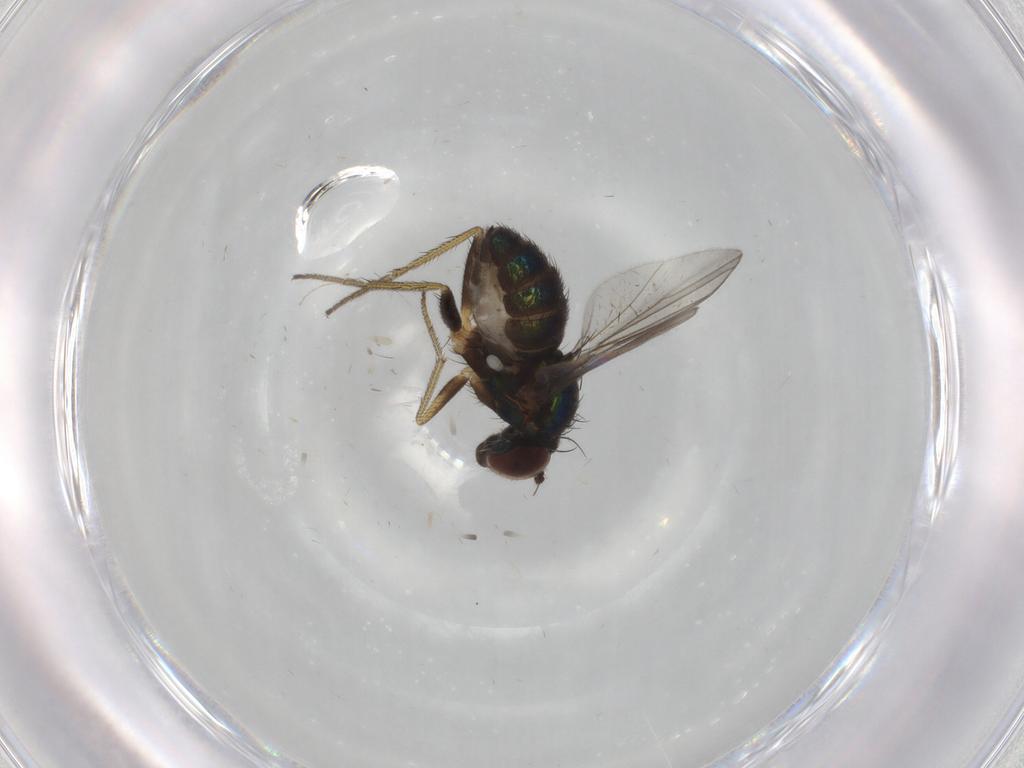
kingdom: Animalia
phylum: Arthropoda
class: Insecta
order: Diptera
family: Dolichopodidae
